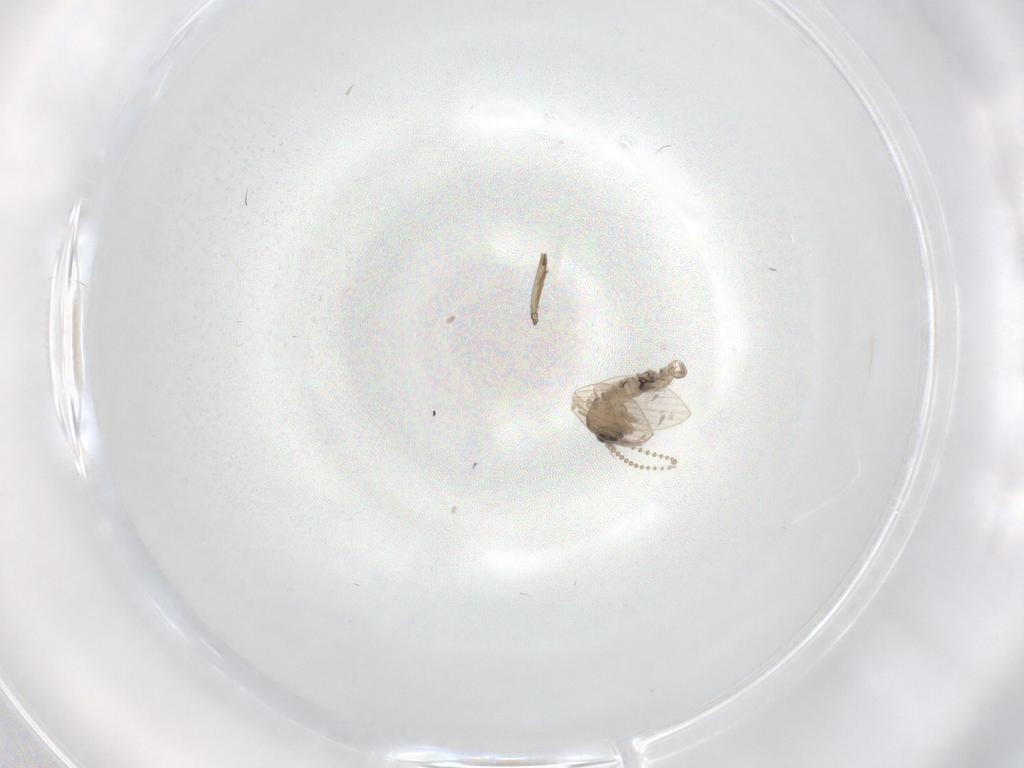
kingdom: Animalia
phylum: Arthropoda
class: Insecta
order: Diptera
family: Cecidomyiidae
